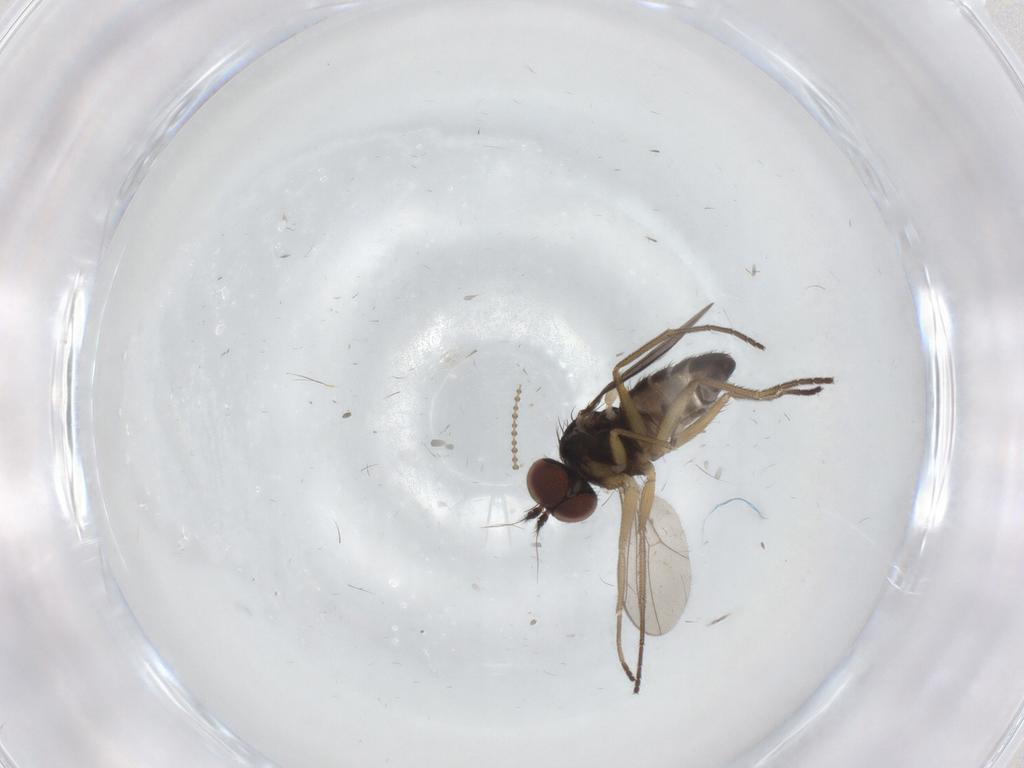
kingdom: Animalia
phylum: Arthropoda
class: Insecta
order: Diptera
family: Dolichopodidae
